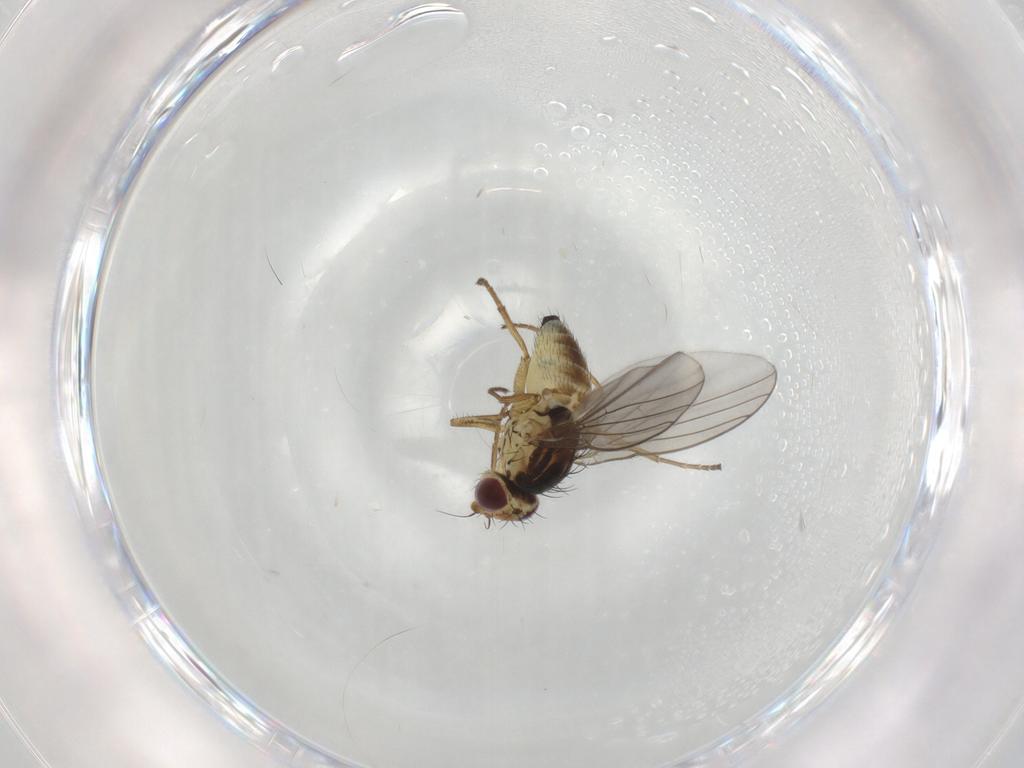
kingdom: Animalia
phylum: Arthropoda
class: Insecta
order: Diptera
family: Agromyzidae
